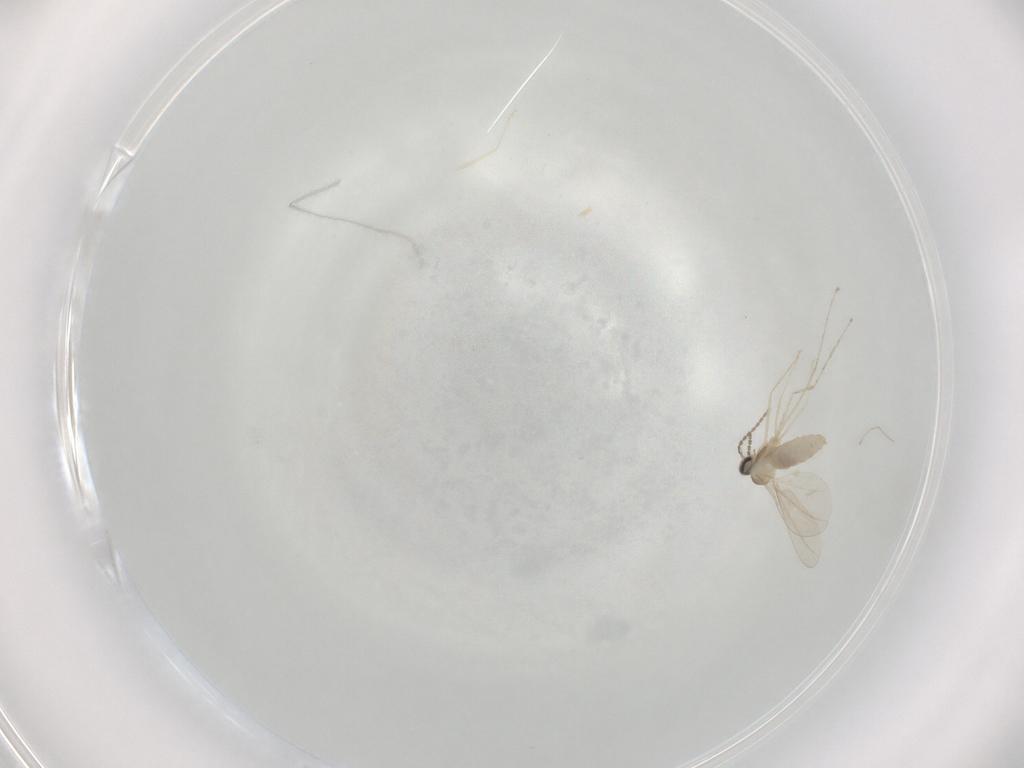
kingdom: Animalia
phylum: Arthropoda
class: Insecta
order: Diptera
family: Cecidomyiidae
